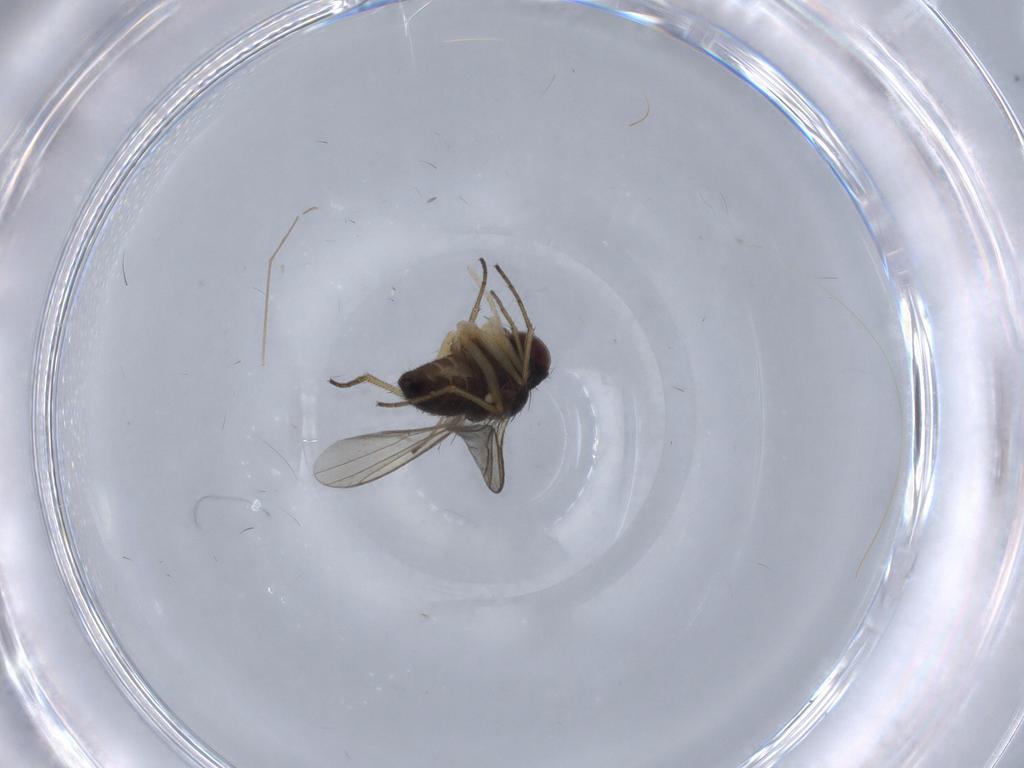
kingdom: Animalia
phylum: Arthropoda
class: Insecta
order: Diptera
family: Dolichopodidae
